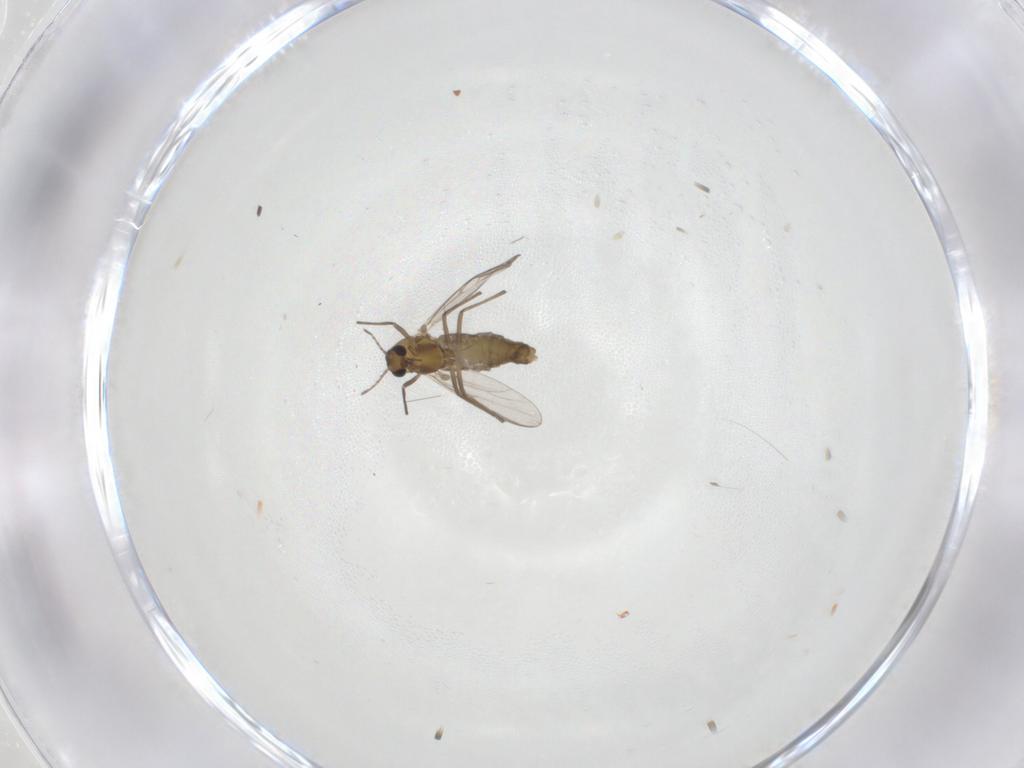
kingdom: Animalia
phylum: Arthropoda
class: Insecta
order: Diptera
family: Chironomidae
